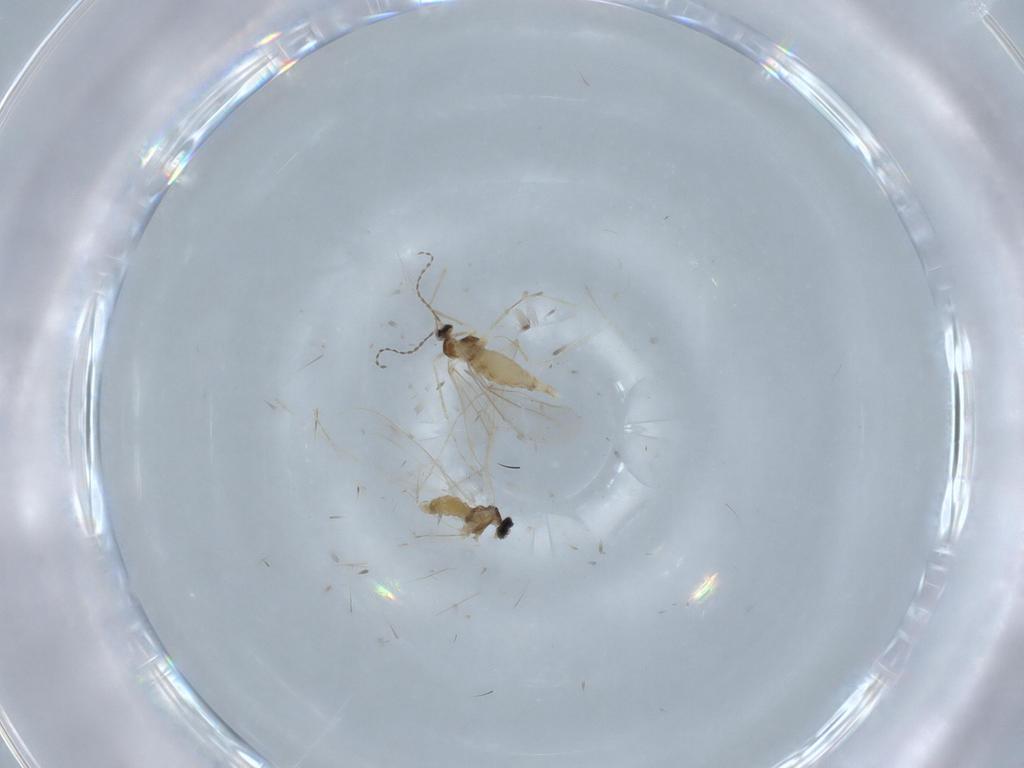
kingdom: Animalia
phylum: Arthropoda
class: Insecta
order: Diptera
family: Cecidomyiidae
